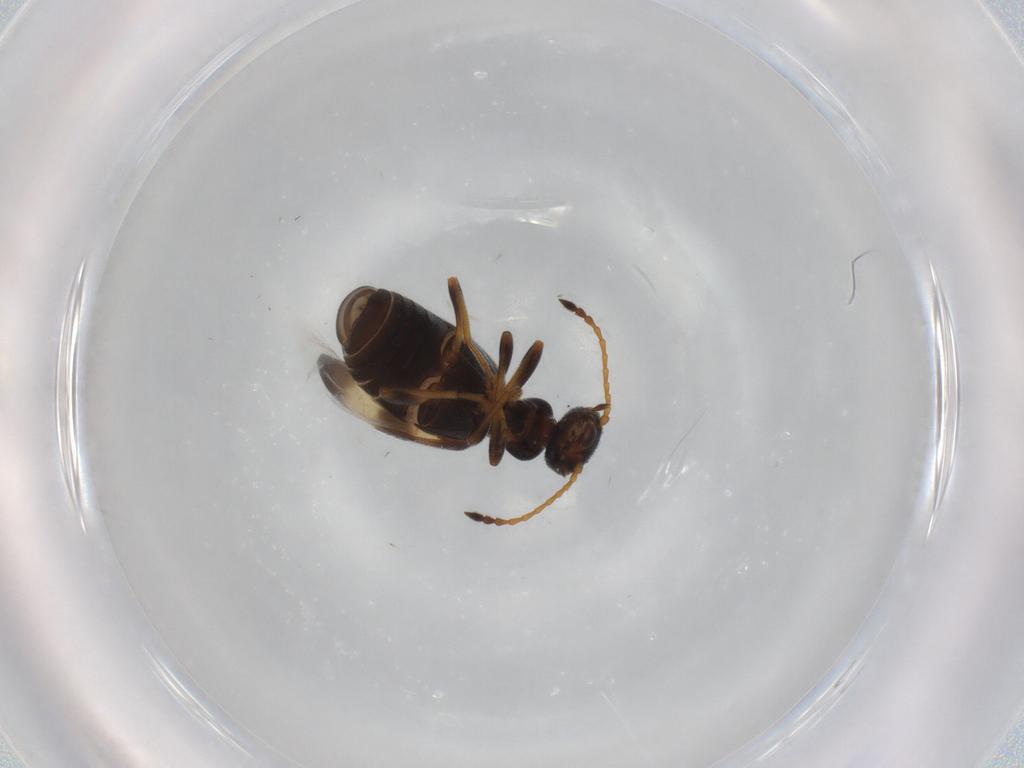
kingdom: Animalia
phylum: Arthropoda
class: Insecta
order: Coleoptera
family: Anthicidae
